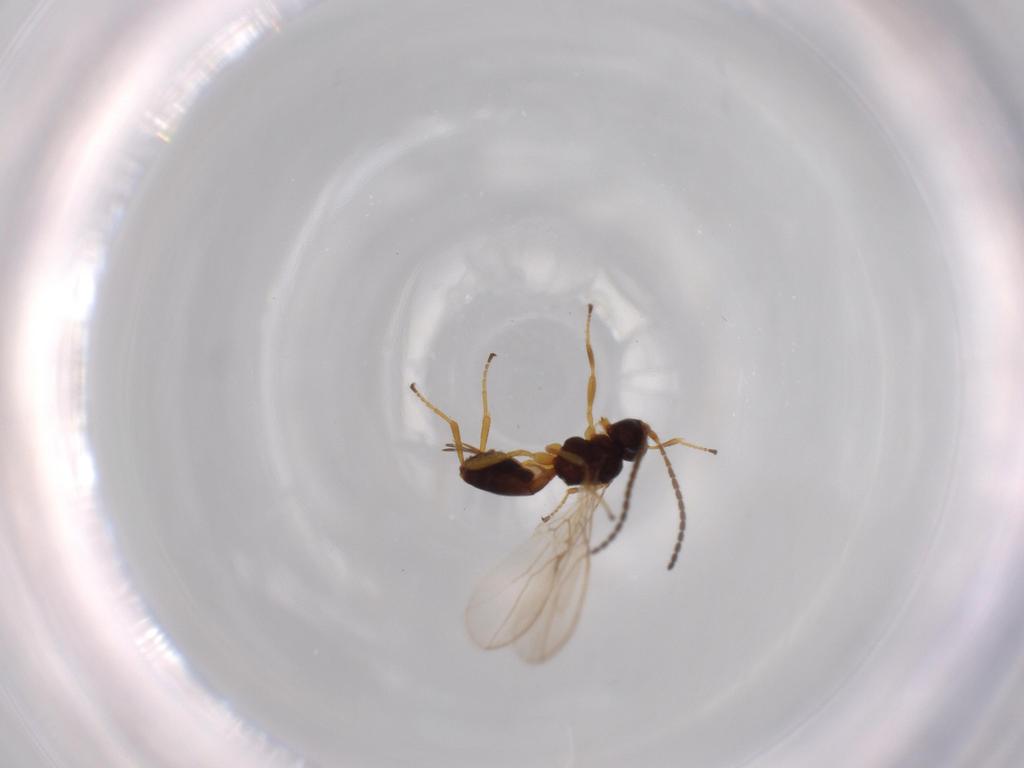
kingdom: Animalia
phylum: Arthropoda
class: Insecta
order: Hymenoptera
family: Braconidae
